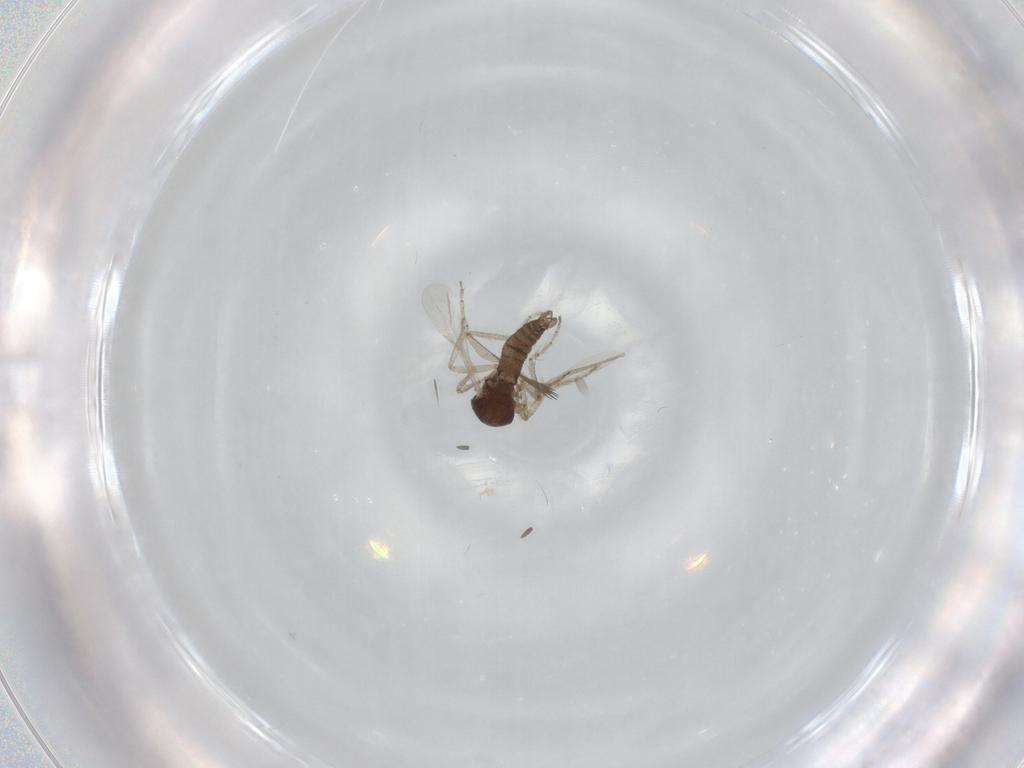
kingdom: Animalia
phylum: Arthropoda
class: Insecta
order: Diptera
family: Ceratopogonidae
